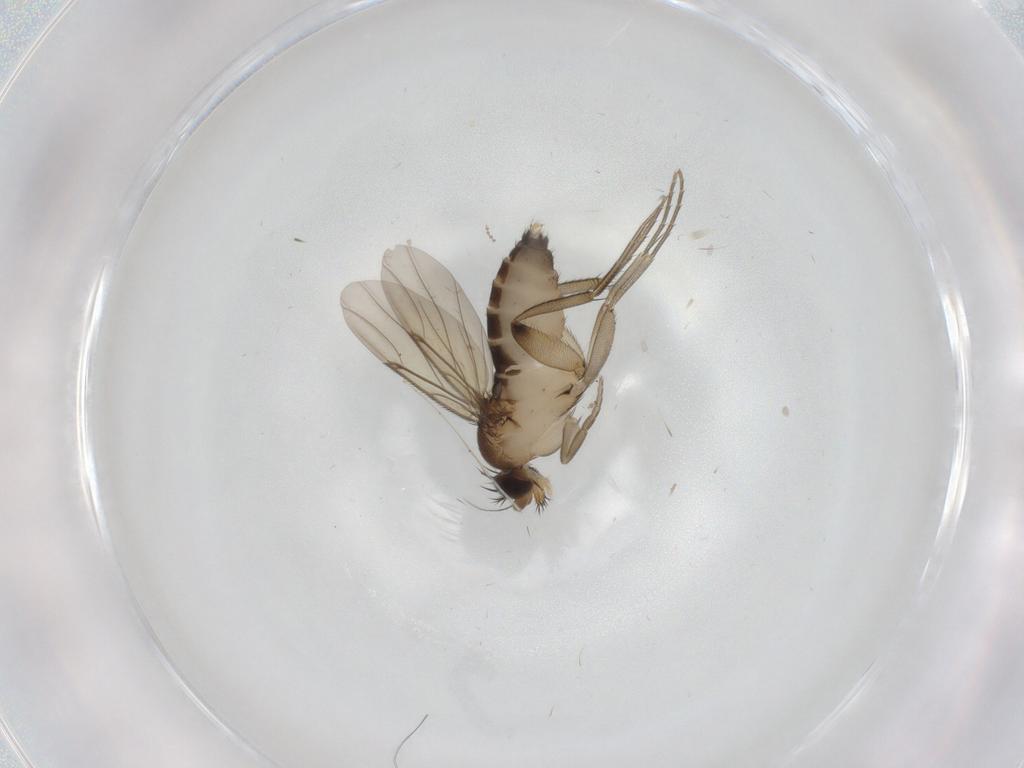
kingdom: Animalia
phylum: Arthropoda
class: Insecta
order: Diptera
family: Phoridae
